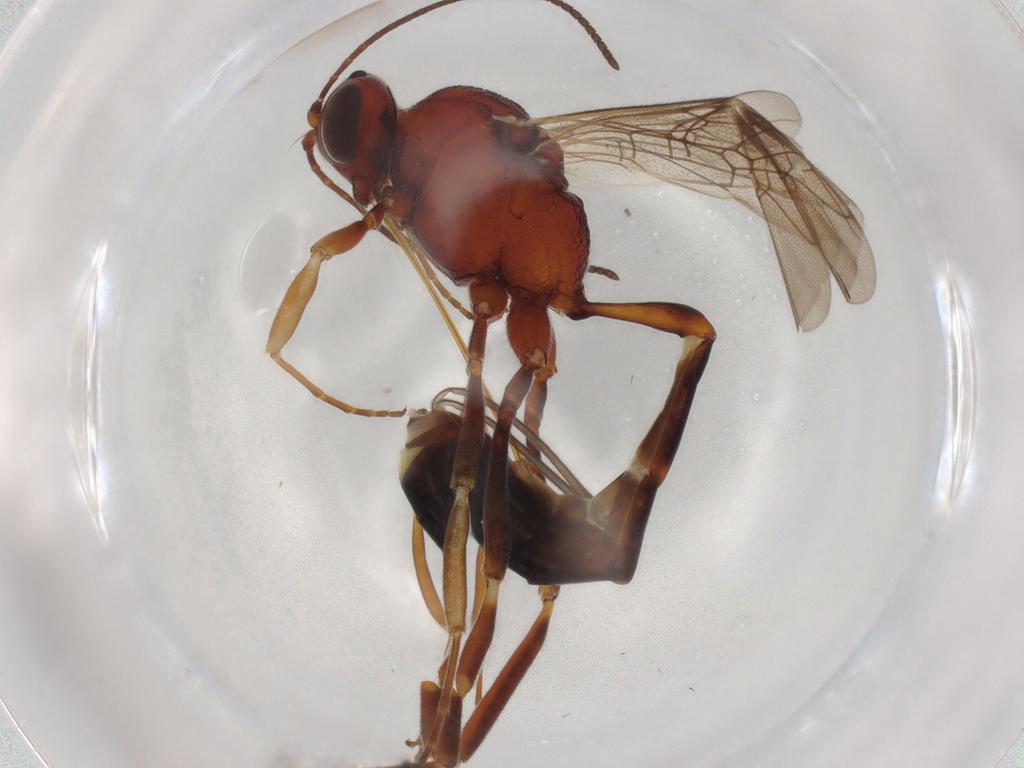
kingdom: Animalia
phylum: Arthropoda
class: Insecta
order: Hymenoptera
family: Ichneumonidae
